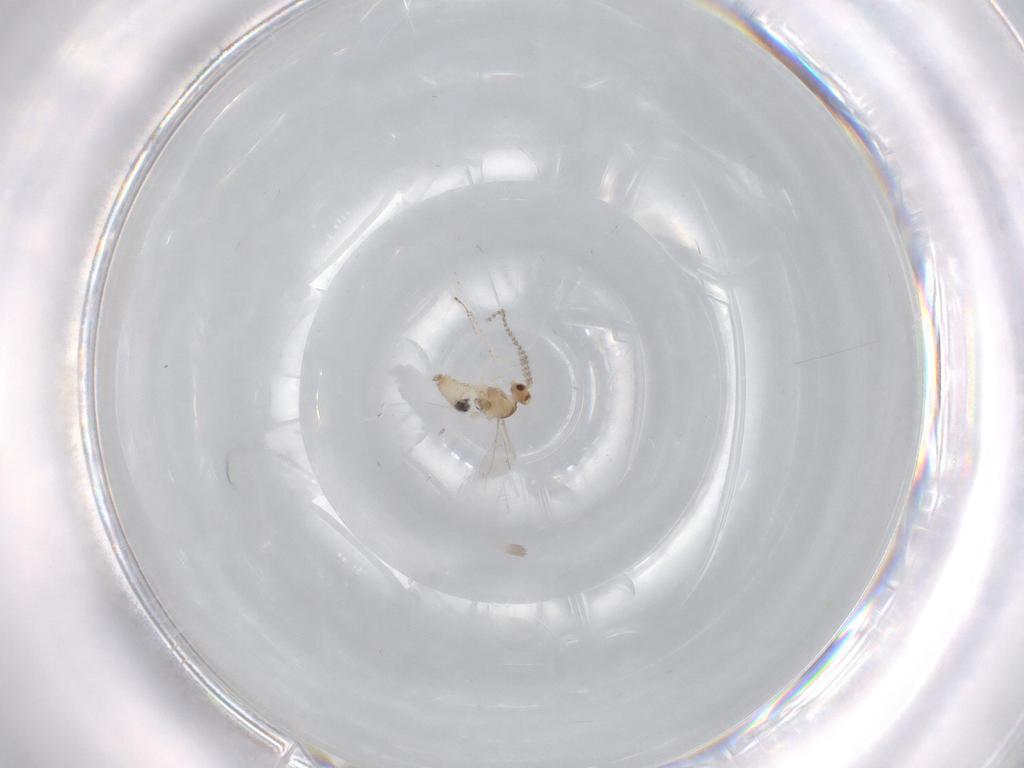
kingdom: Animalia
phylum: Arthropoda
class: Insecta
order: Diptera
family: Cecidomyiidae
